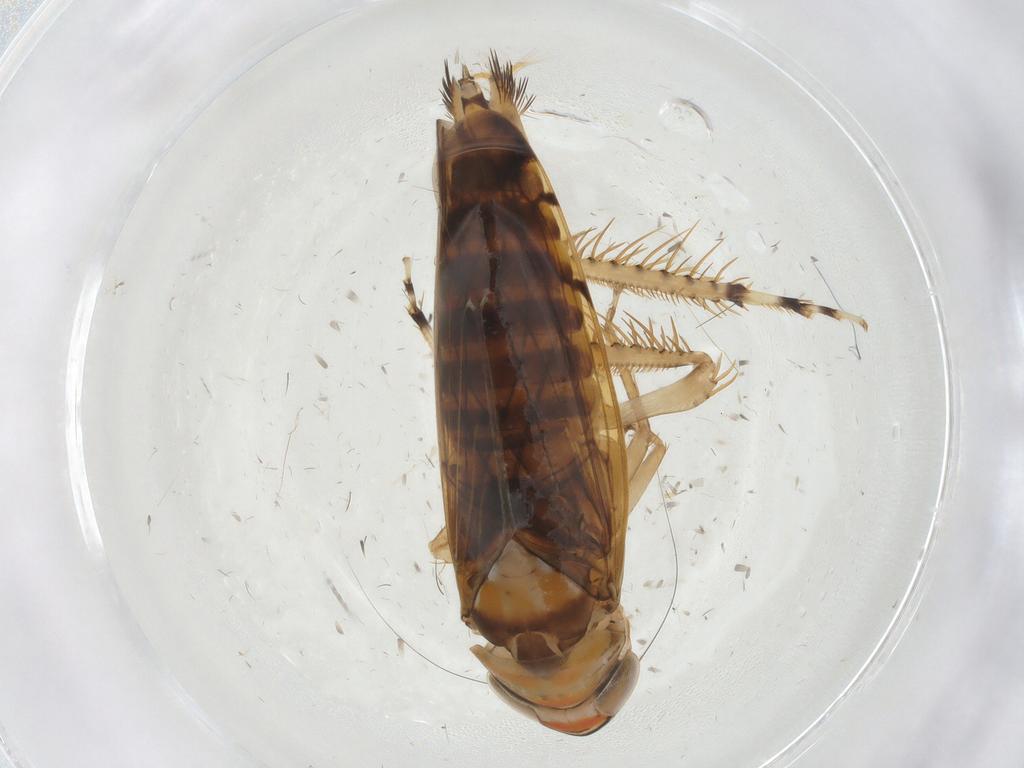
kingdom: Animalia
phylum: Arthropoda
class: Insecta
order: Hemiptera
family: Cicadellidae
